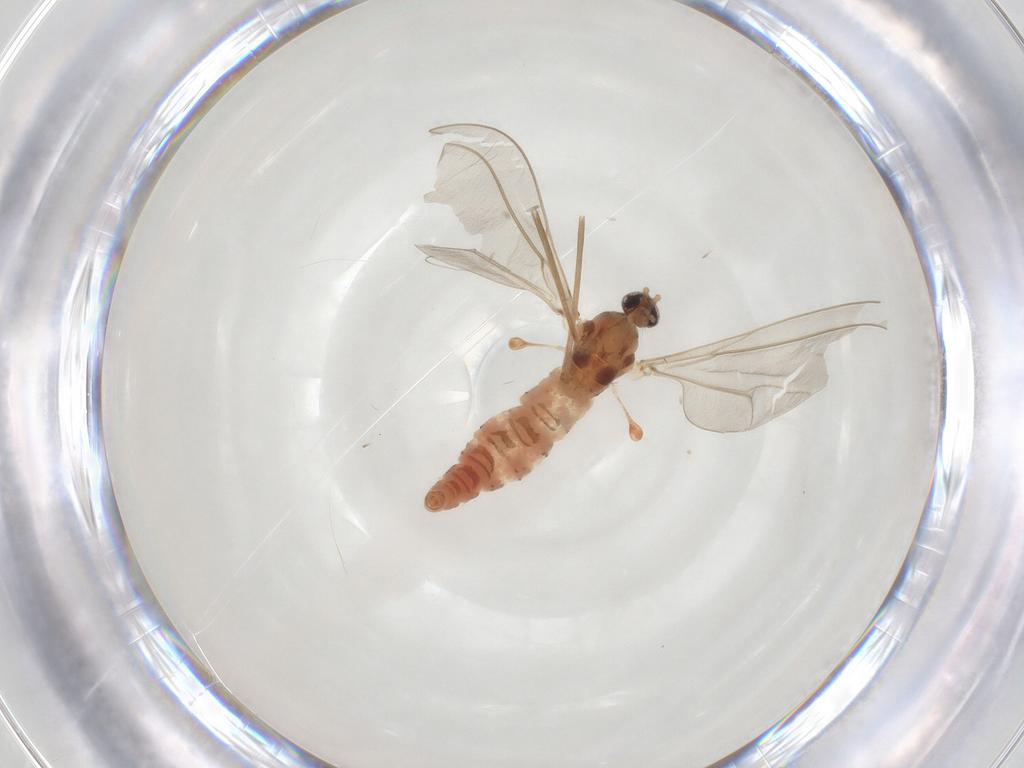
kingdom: Animalia
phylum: Arthropoda
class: Insecta
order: Diptera
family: Cecidomyiidae
